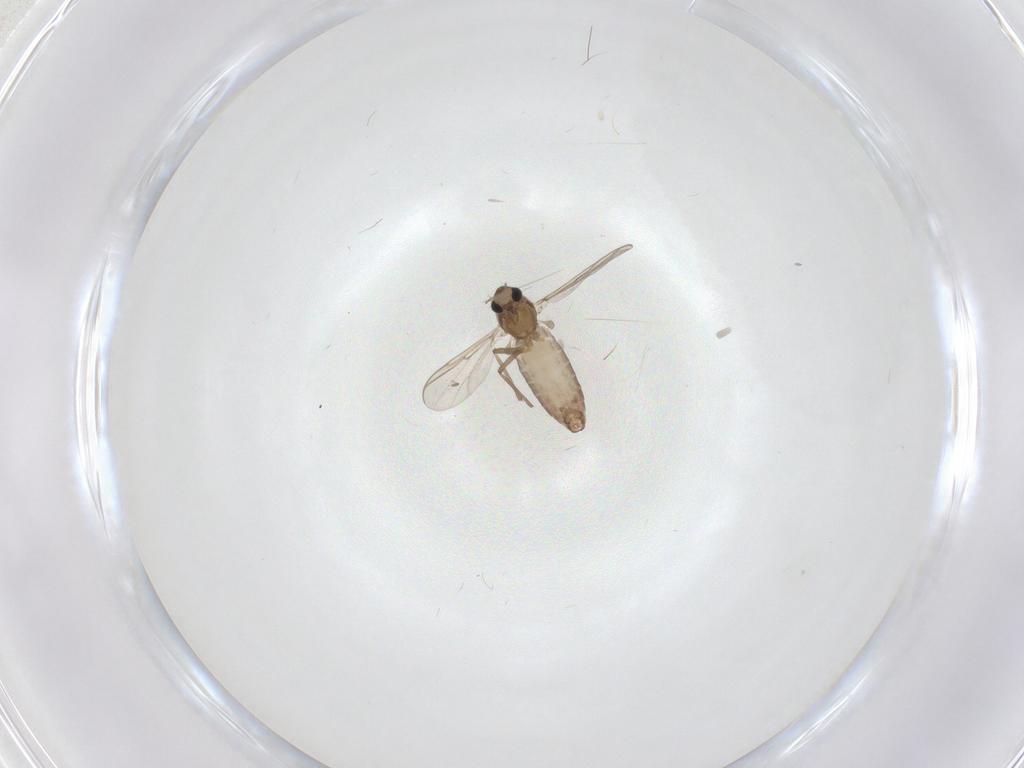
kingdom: Animalia
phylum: Arthropoda
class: Insecta
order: Diptera
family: Chironomidae
